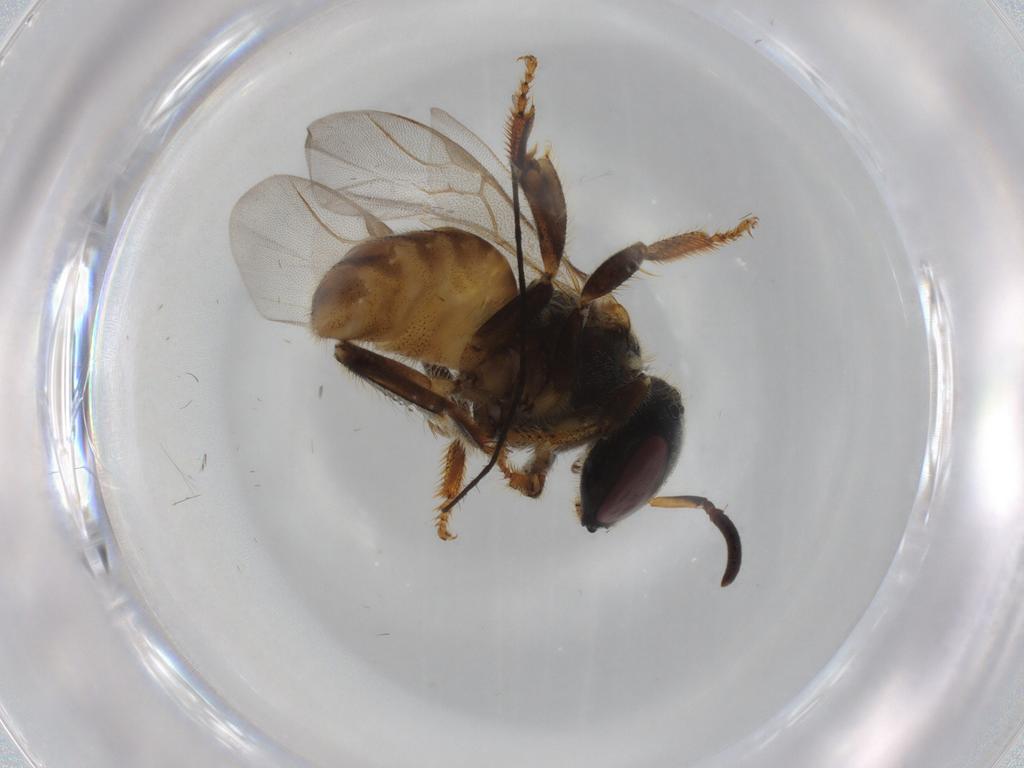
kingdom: Animalia
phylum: Arthropoda
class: Insecta
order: Hymenoptera
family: Apidae
